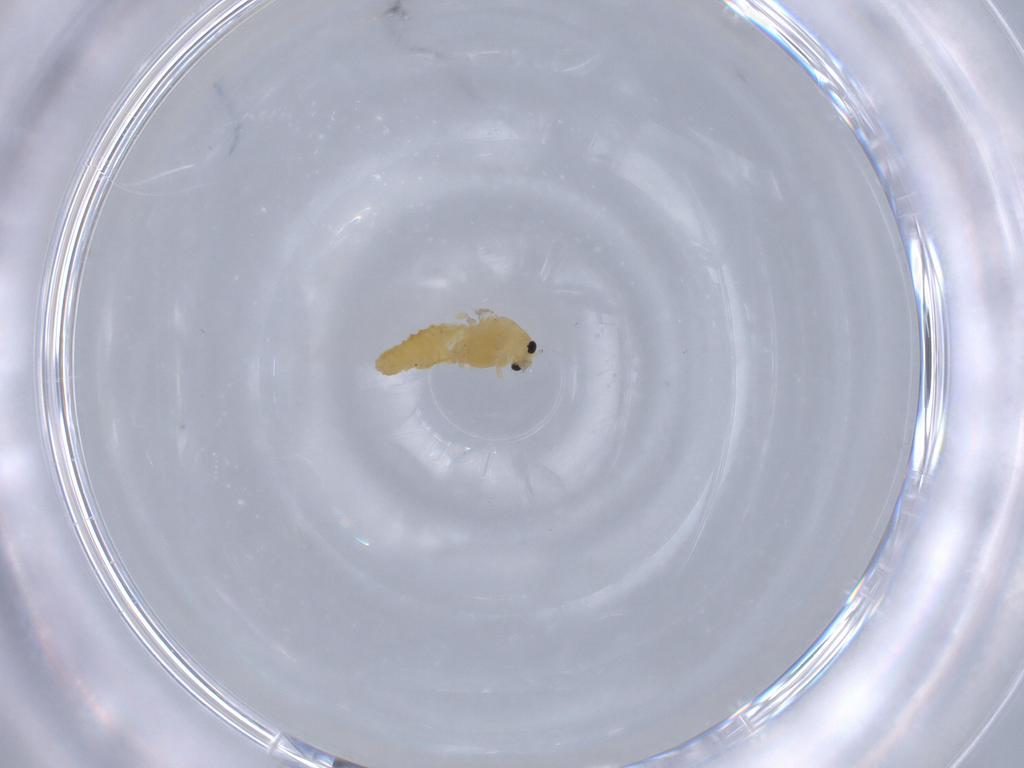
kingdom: Animalia
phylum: Arthropoda
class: Insecta
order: Diptera
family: Chironomidae
